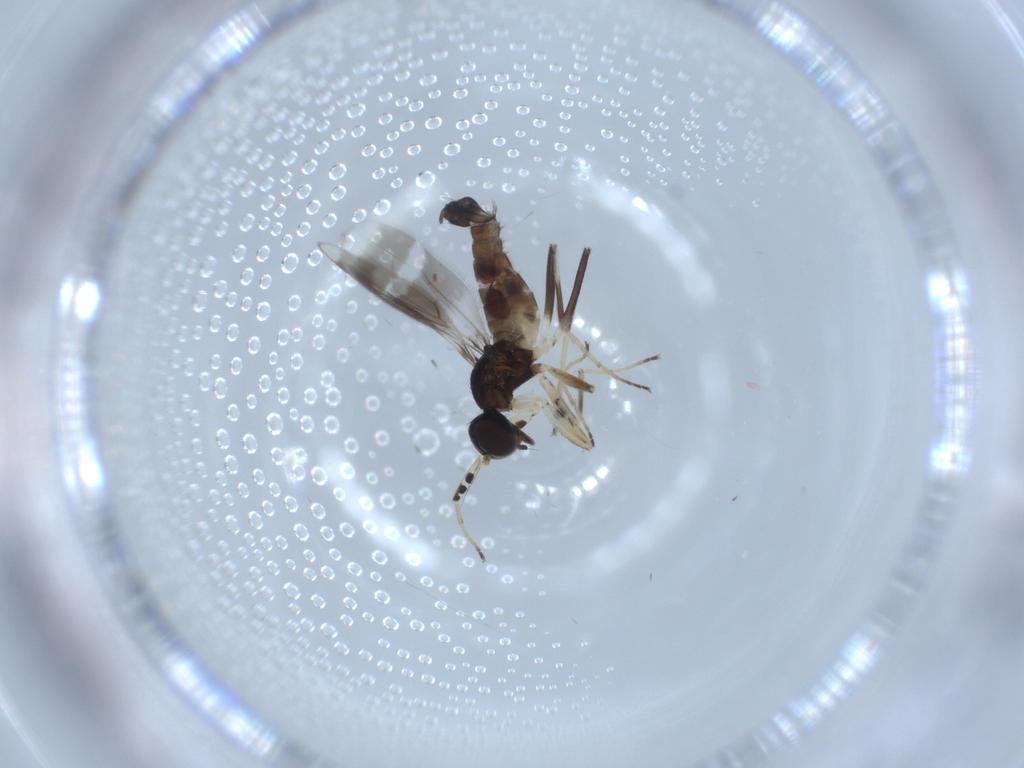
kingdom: Animalia
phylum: Arthropoda
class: Insecta
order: Diptera
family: Hybotidae
